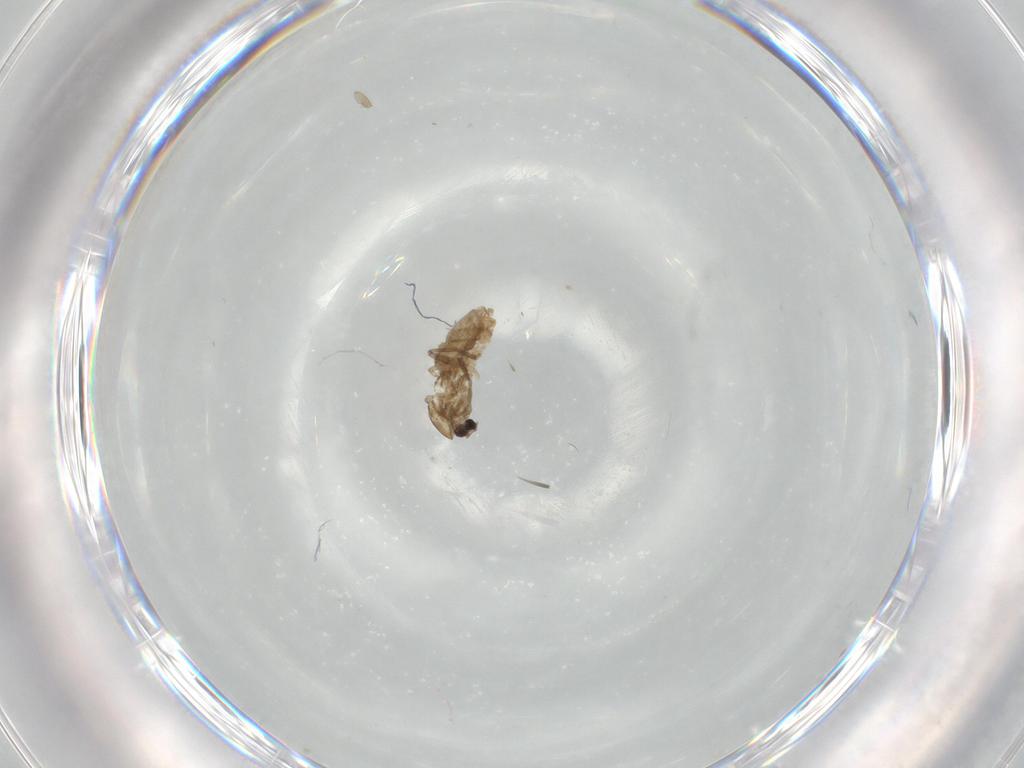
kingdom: Animalia
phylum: Arthropoda
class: Insecta
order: Diptera
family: Chironomidae
